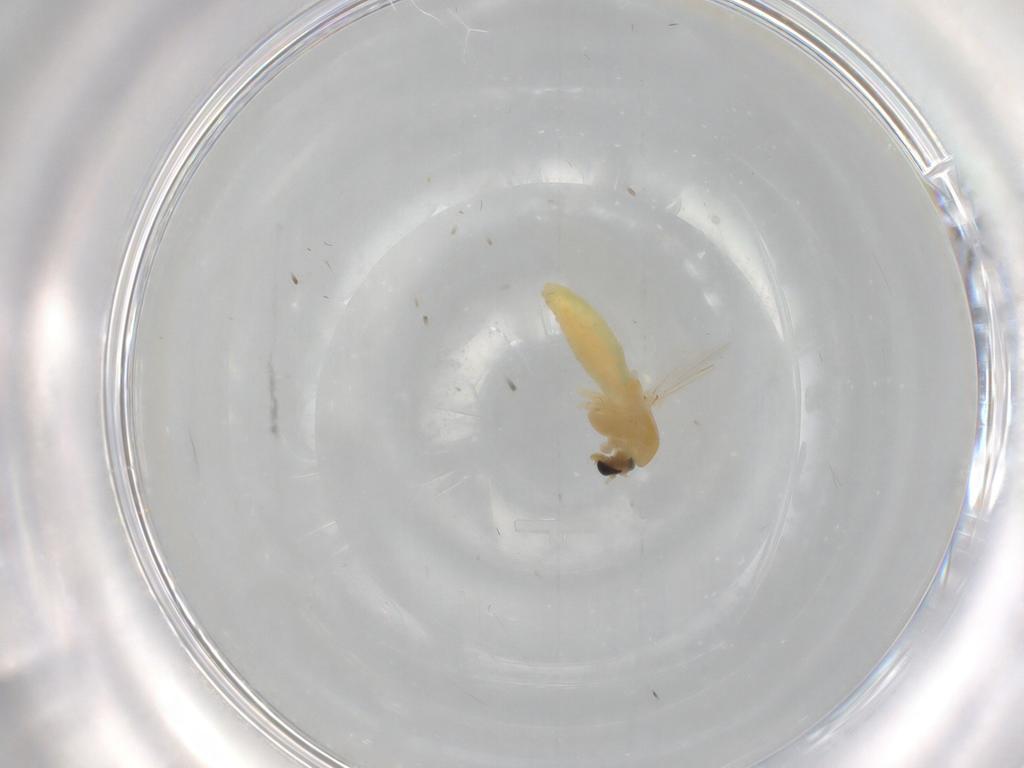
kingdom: Animalia
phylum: Arthropoda
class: Insecta
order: Diptera
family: Chironomidae
